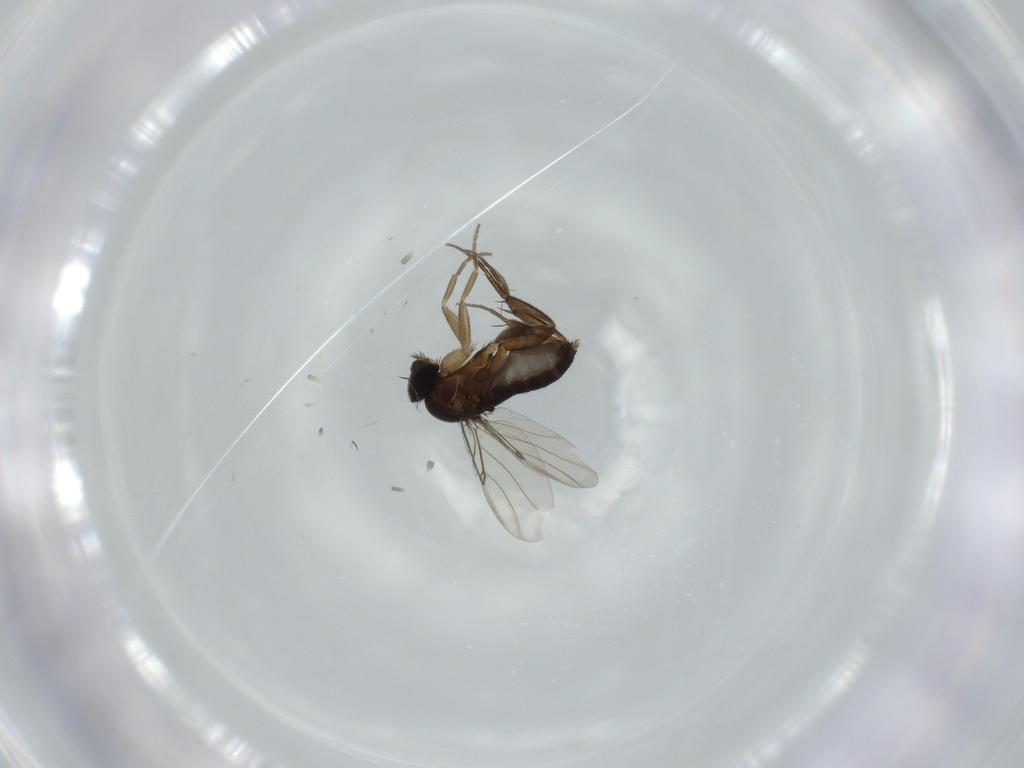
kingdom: Animalia
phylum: Arthropoda
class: Insecta
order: Diptera
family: Phoridae
